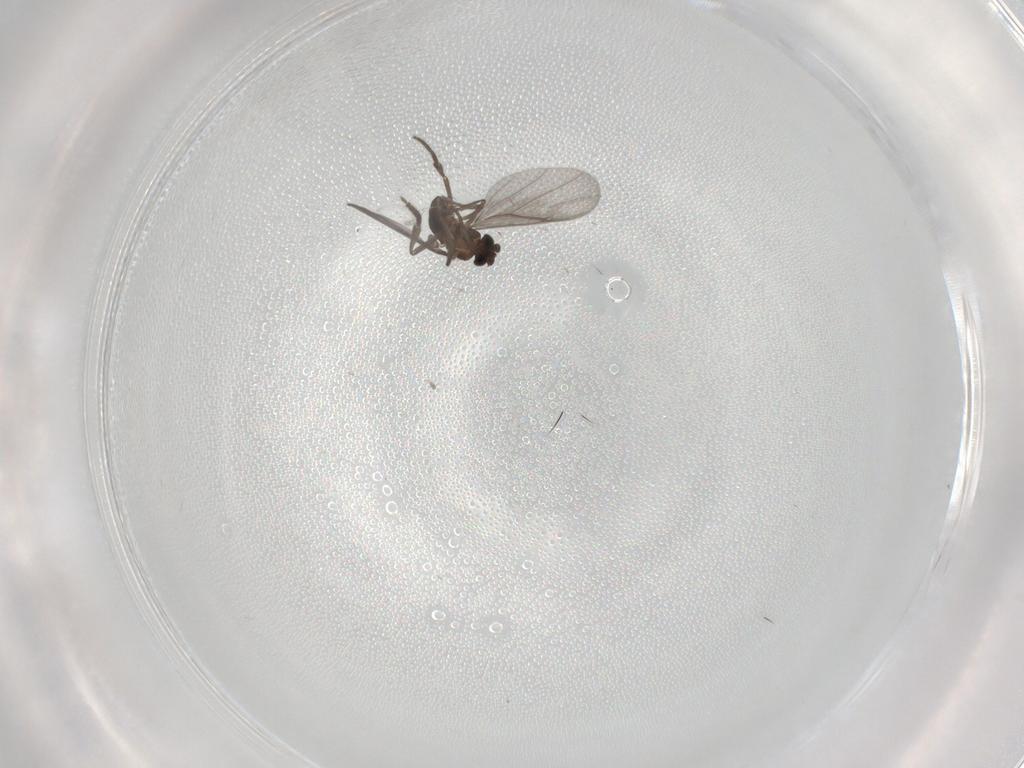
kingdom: Animalia
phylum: Arthropoda
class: Insecta
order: Diptera
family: Phoridae
